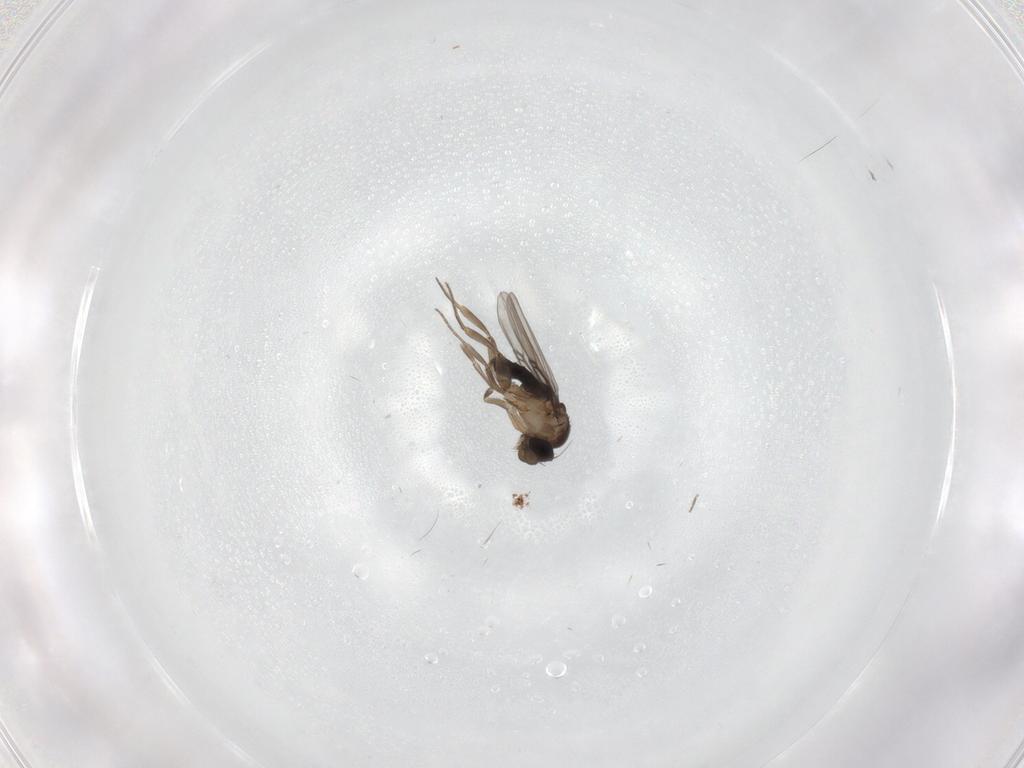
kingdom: Animalia
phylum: Arthropoda
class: Insecta
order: Diptera
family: Phoridae
